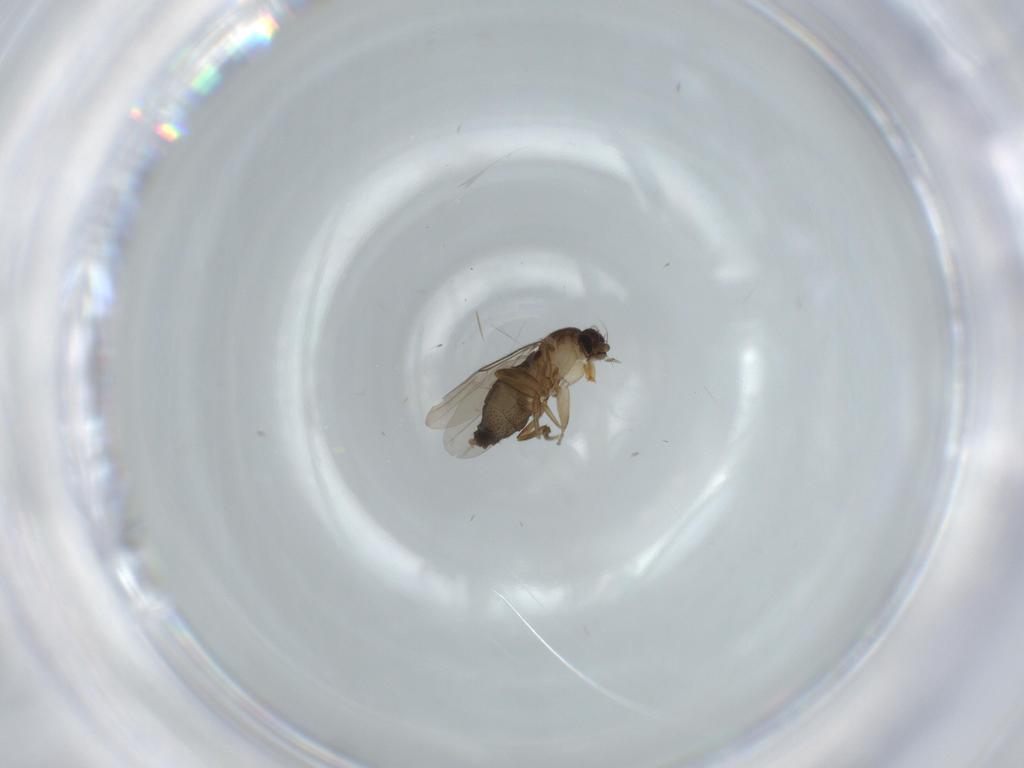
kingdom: Animalia
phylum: Arthropoda
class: Insecta
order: Diptera
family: Phoridae
